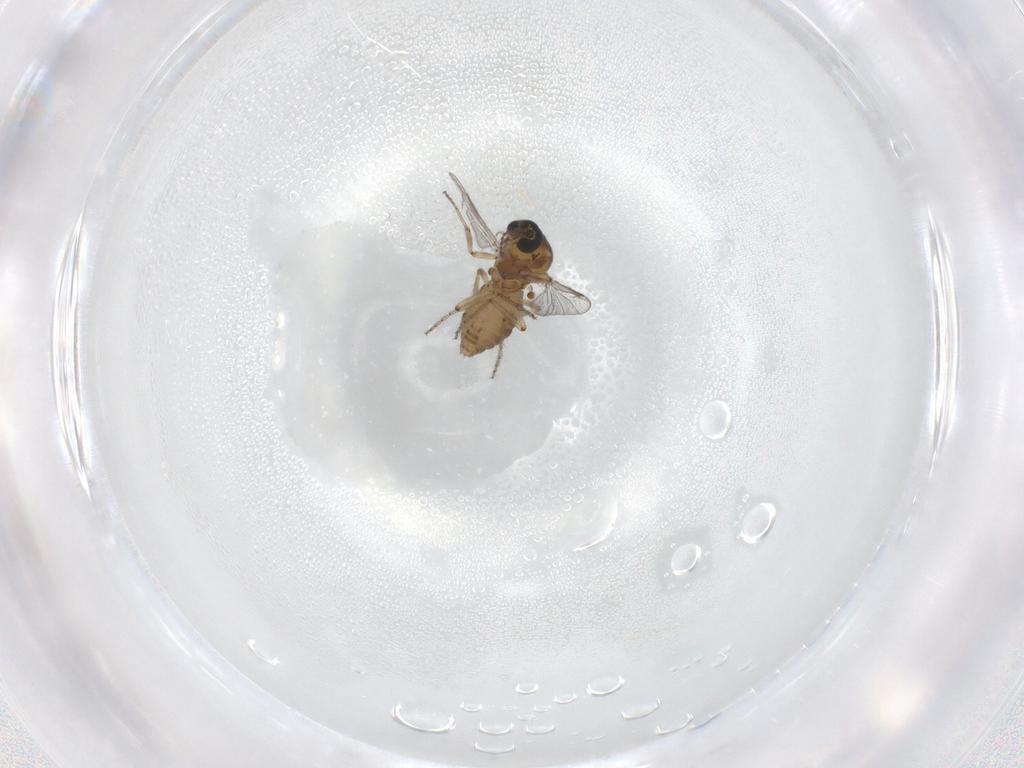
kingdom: Animalia
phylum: Arthropoda
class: Insecta
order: Diptera
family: Ceratopogonidae
